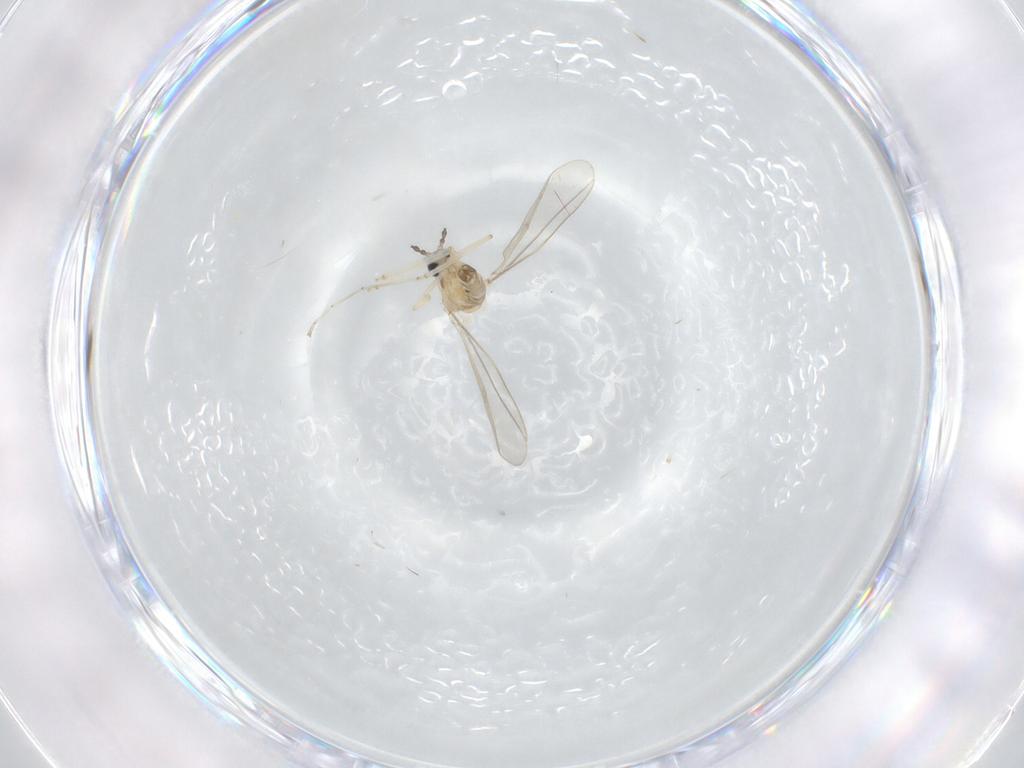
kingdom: Animalia
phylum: Arthropoda
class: Insecta
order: Diptera
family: Cecidomyiidae
